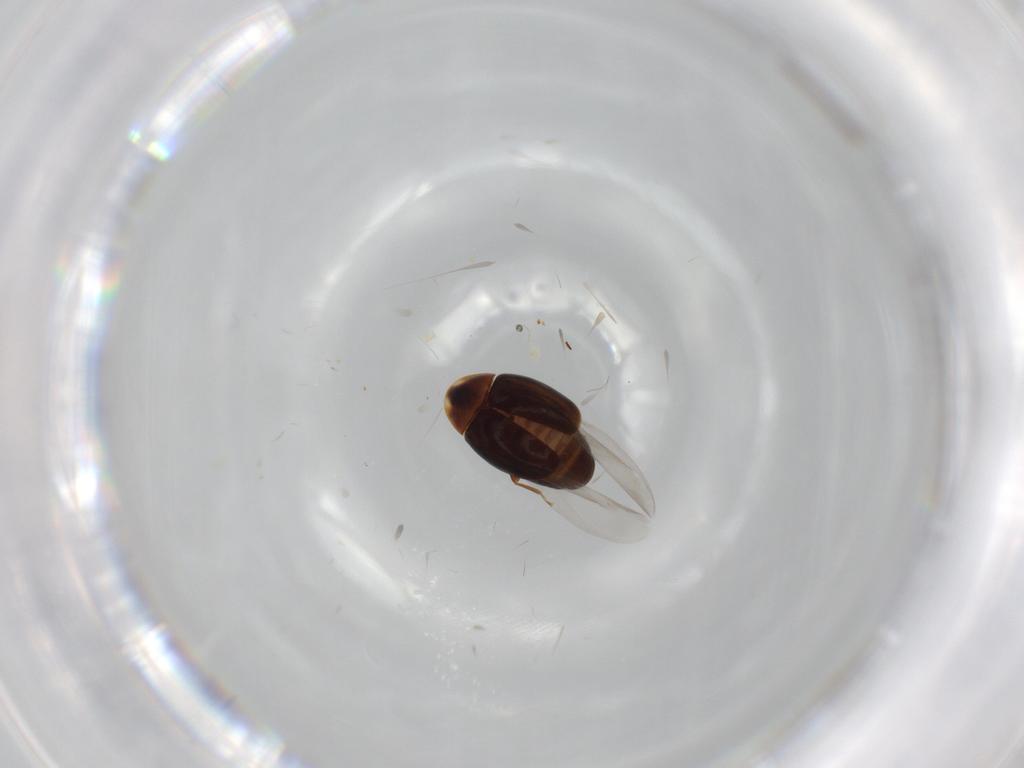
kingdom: Animalia
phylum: Arthropoda
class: Insecta
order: Coleoptera
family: Corylophidae
